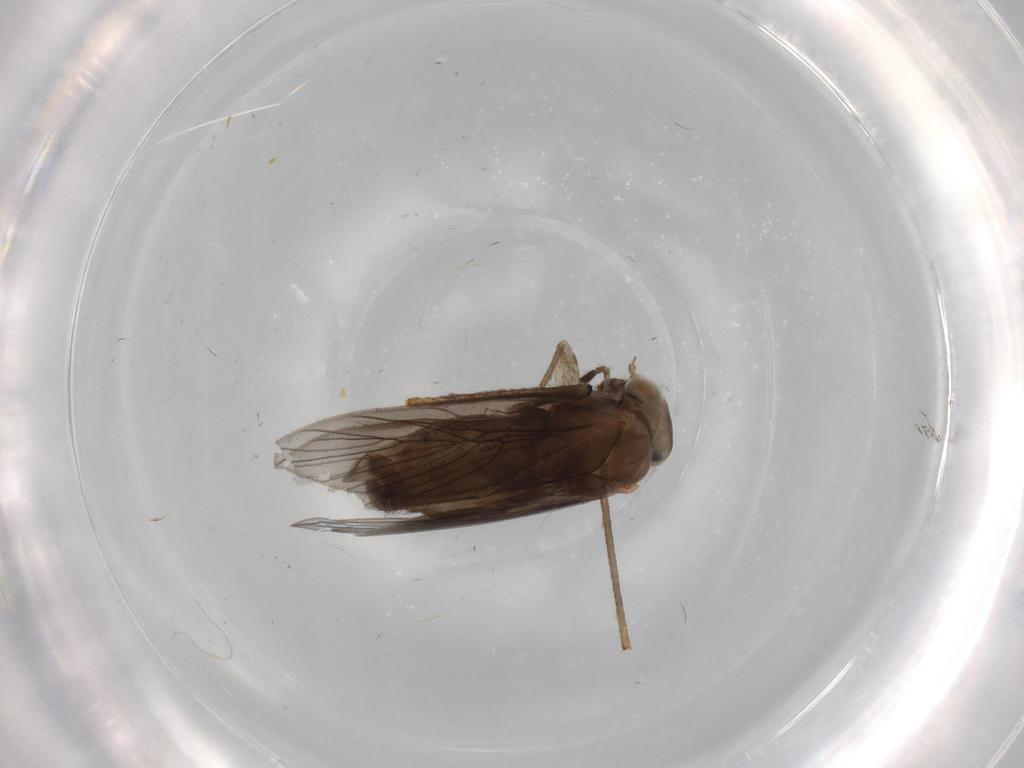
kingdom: Animalia
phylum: Arthropoda
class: Insecta
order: Psocodea
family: Lepidopsocidae
